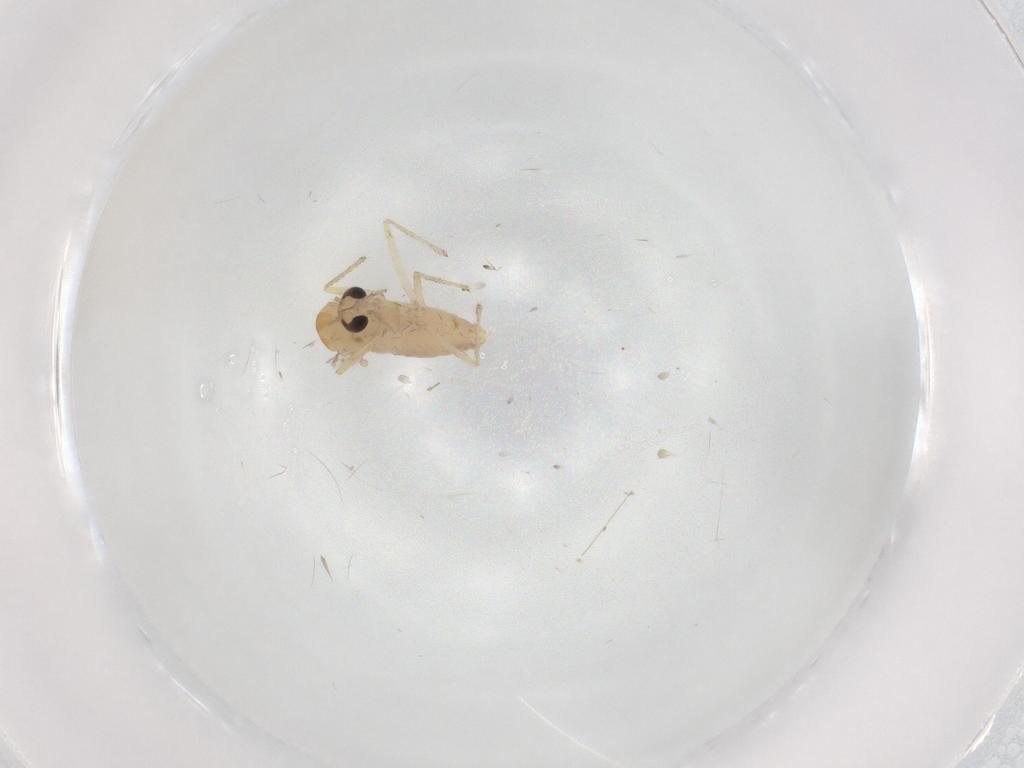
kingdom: Animalia
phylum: Arthropoda
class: Insecta
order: Diptera
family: Chironomidae
